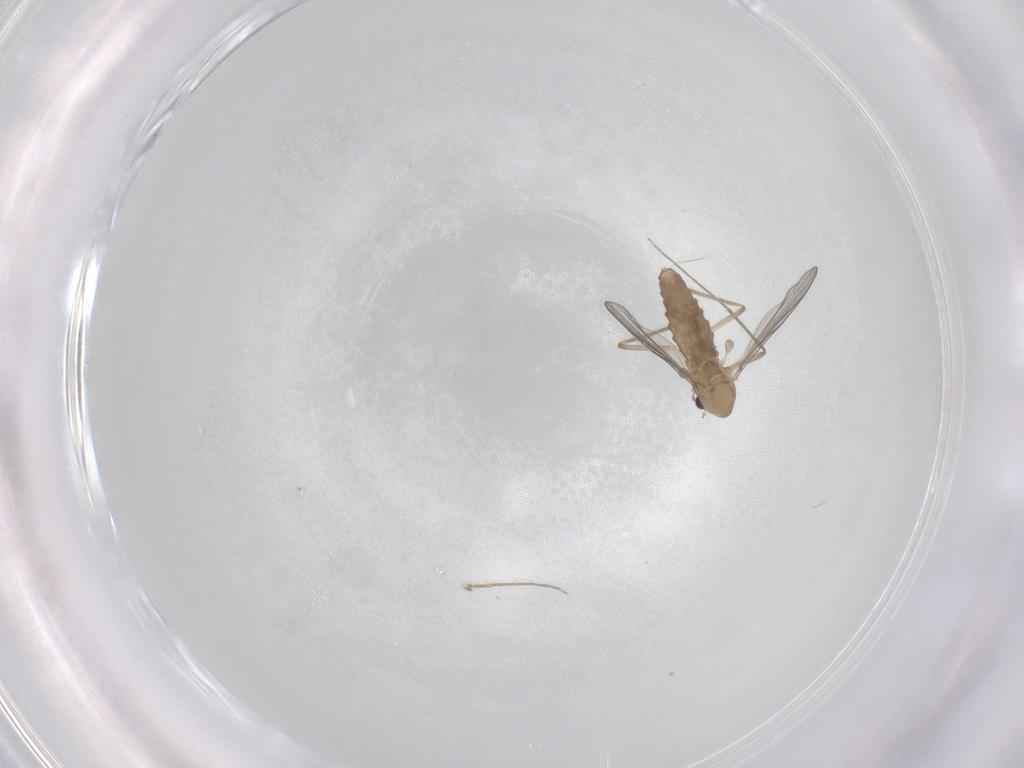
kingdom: Animalia
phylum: Arthropoda
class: Insecta
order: Diptera
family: Chironomidae
